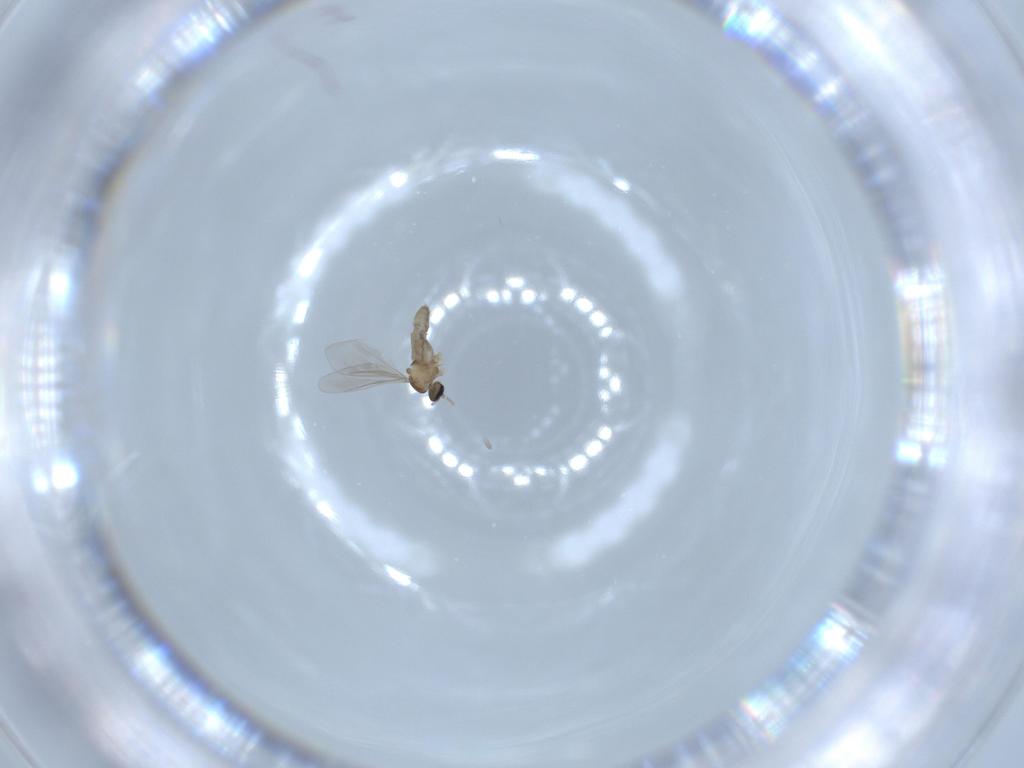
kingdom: Animalia
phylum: Arthropoda
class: Insecta
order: Diptera
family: Cecidomyiidae
